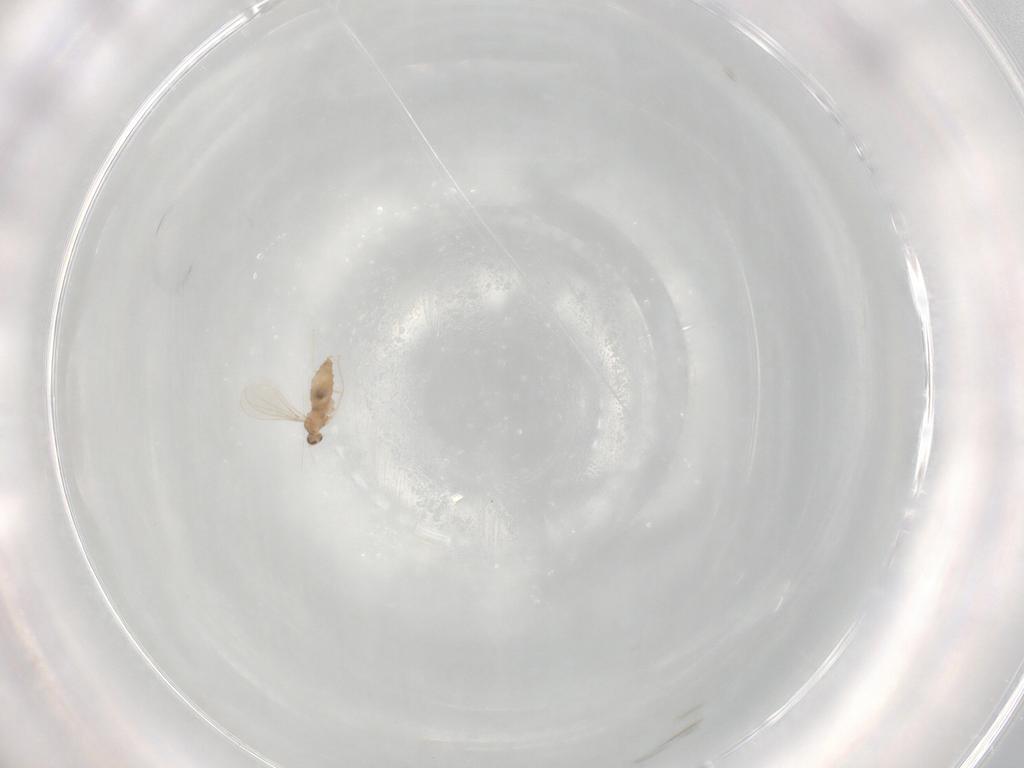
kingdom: Animalia
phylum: Arthropoda
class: Insecta
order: Diptera
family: Cecidomyiidae
